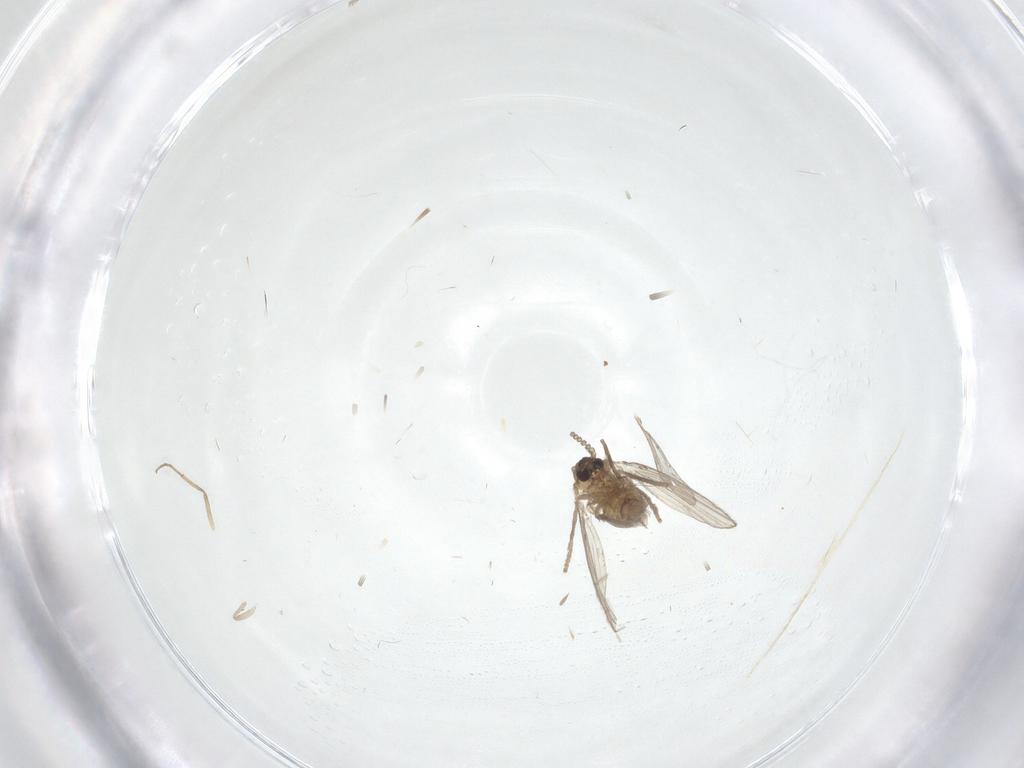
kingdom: Animalia
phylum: Arthropoda
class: Insecta
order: Diptera
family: Chironomidae
